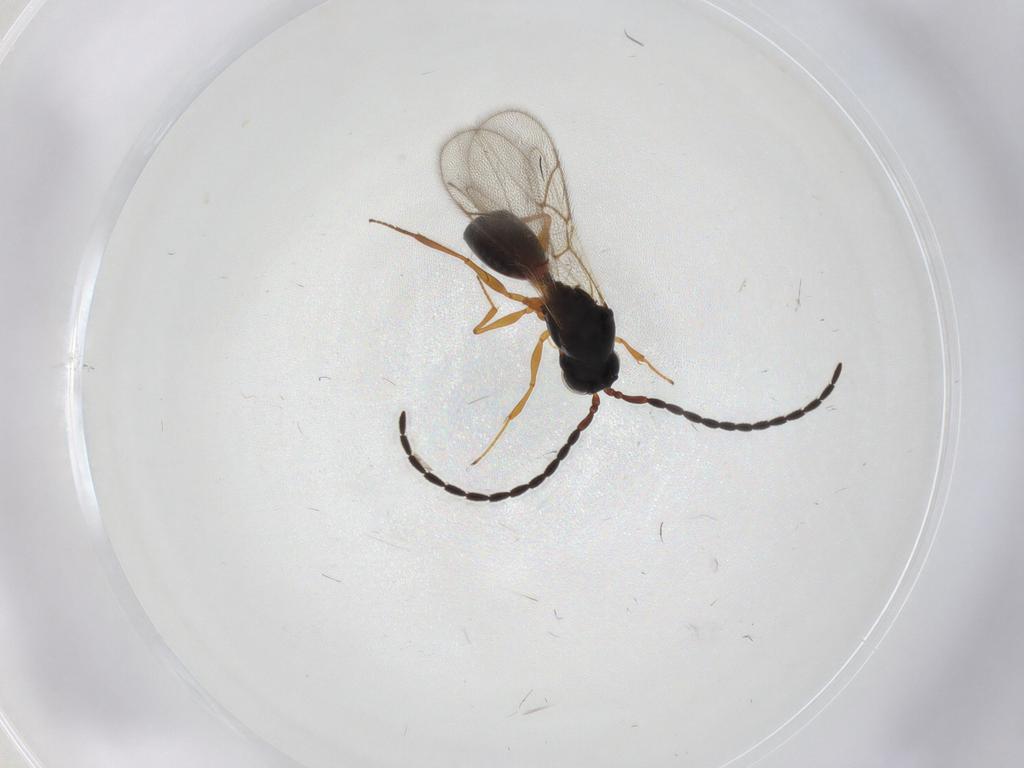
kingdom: Animalia
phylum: Arthropoda
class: Insecta
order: Hymenoptera
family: Figitidae
